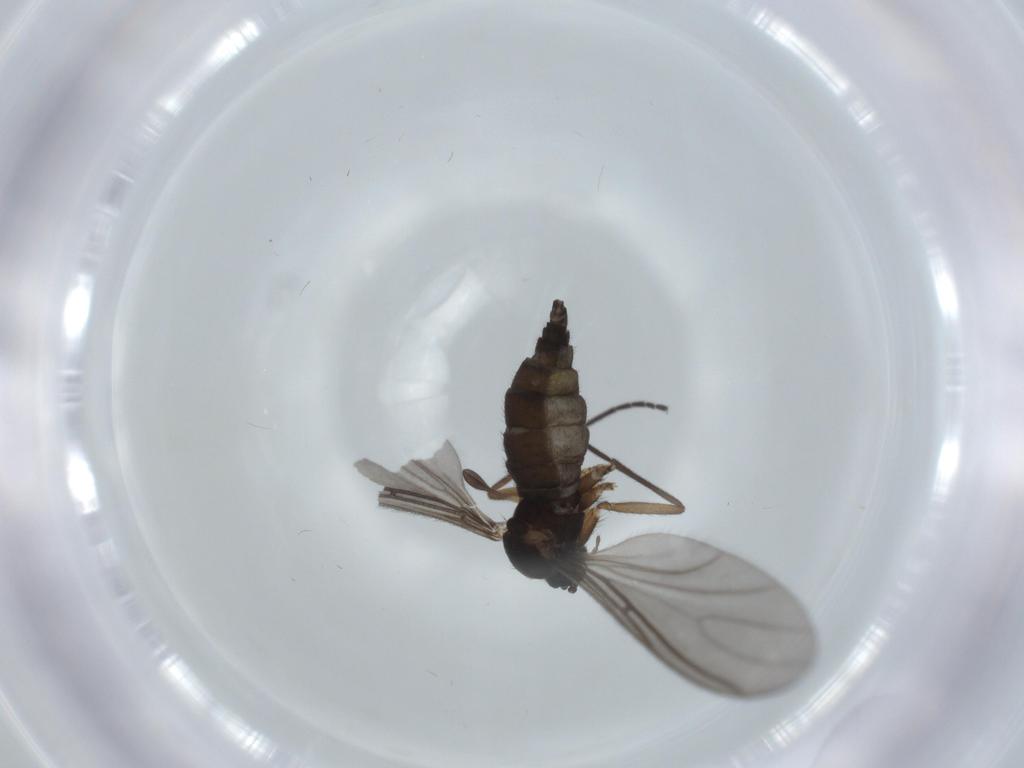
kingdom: Animalia
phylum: Arthropoda
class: Insecta
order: Diptera
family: Sciaridae
